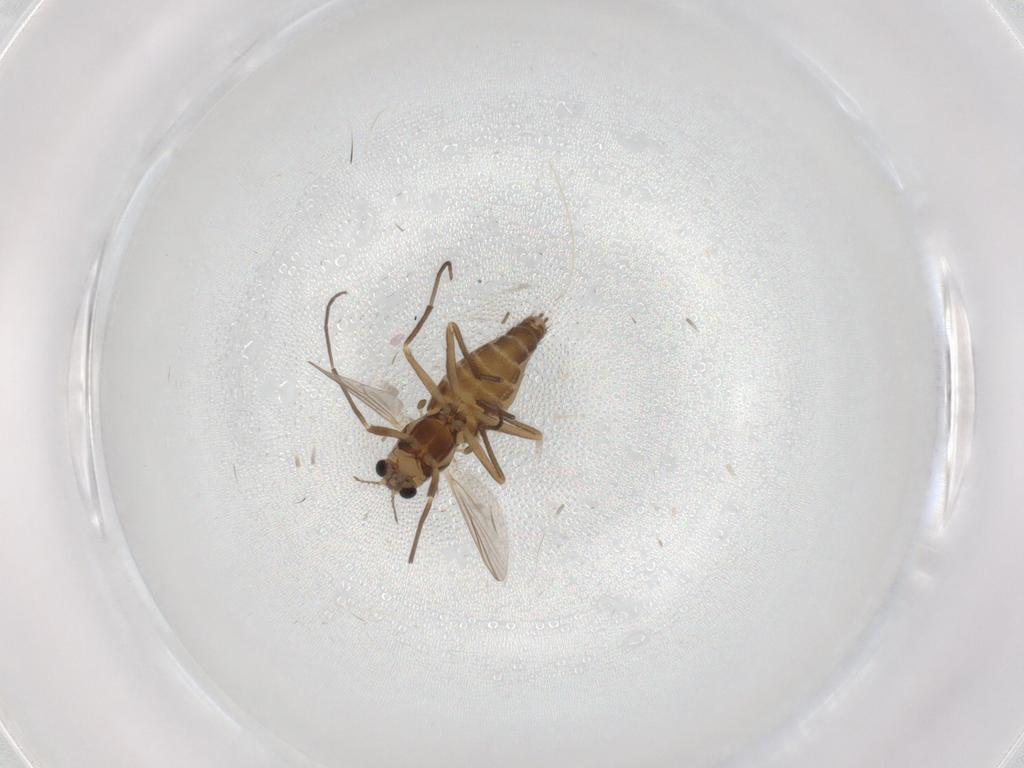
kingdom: Animalia
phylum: Arthropoda
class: Insecta
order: Diptera
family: Chironomidae
